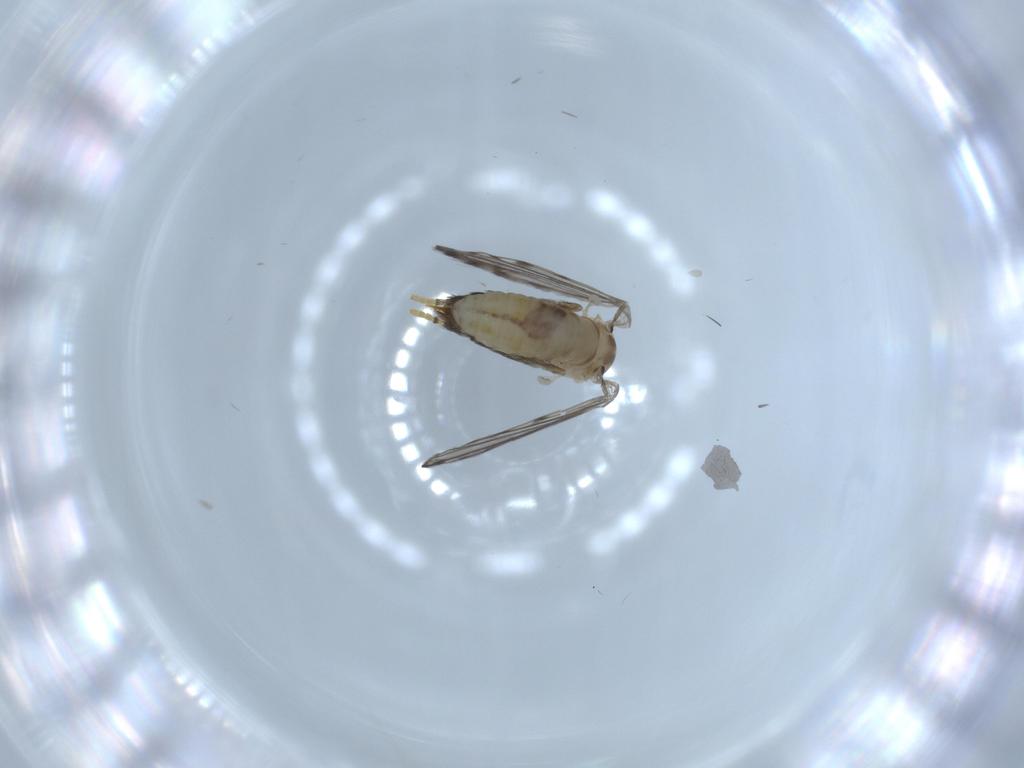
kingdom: Animalia
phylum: Arthropoda
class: Insecta
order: Diptera
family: Psychodidae
